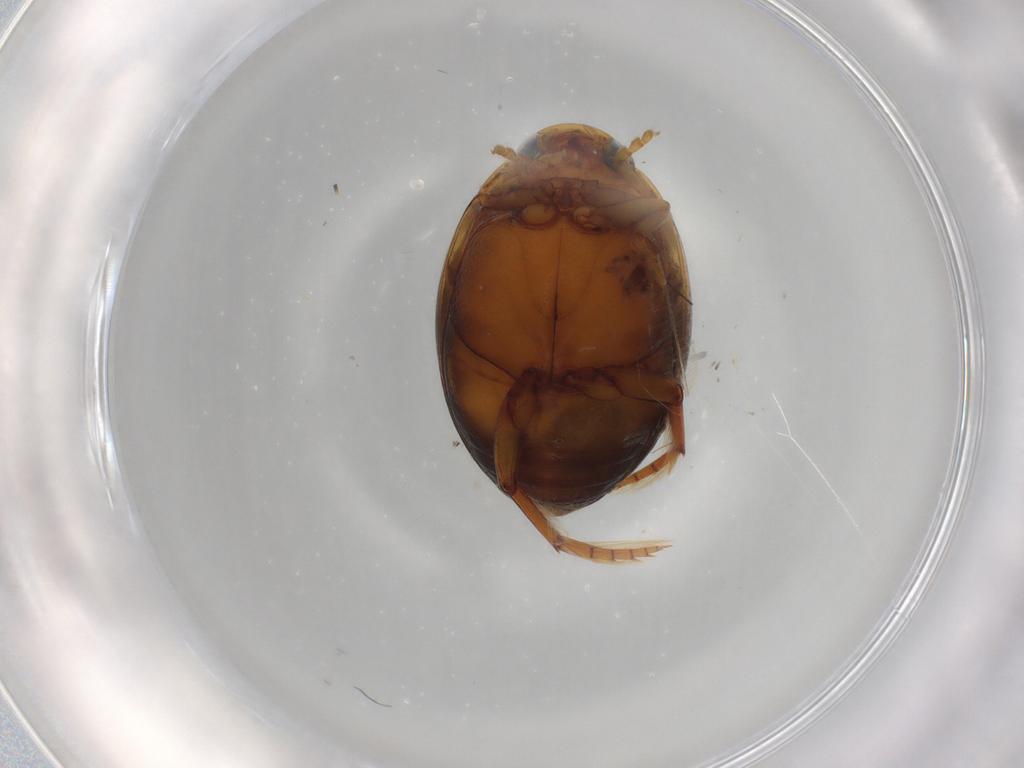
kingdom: Animalia
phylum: Arthropoda
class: Insecta
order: Coleoptera
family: Dytiscidae
